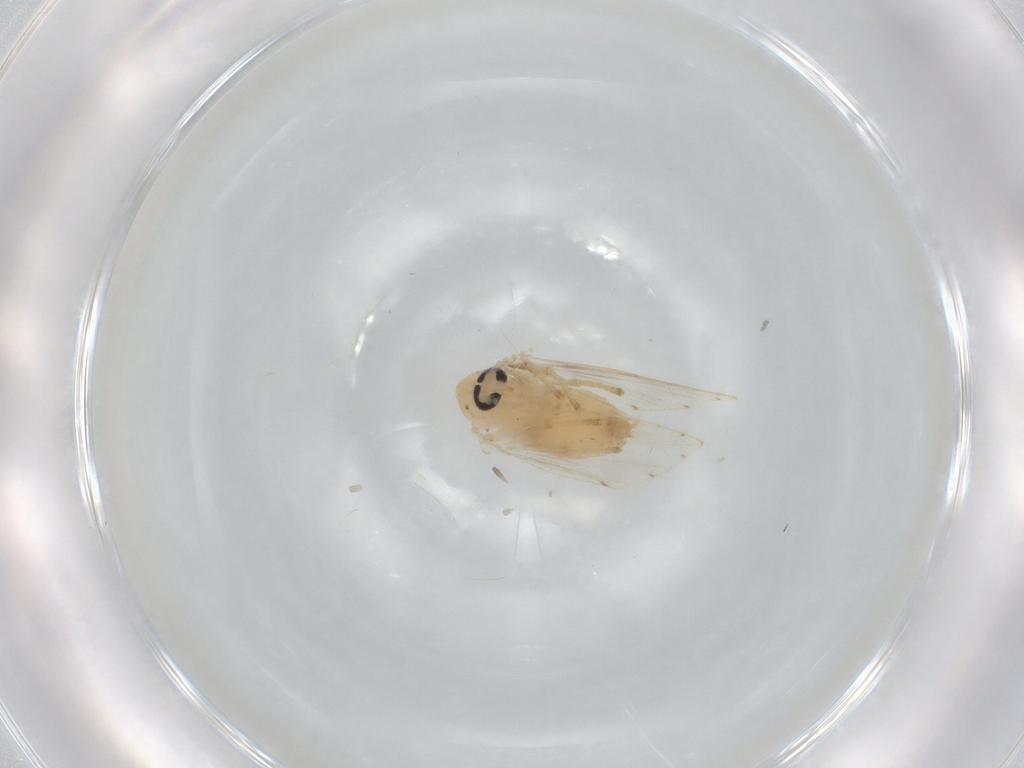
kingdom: Animalia
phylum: Arthropoda
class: Insecta
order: Diptera
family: Psychodidae
